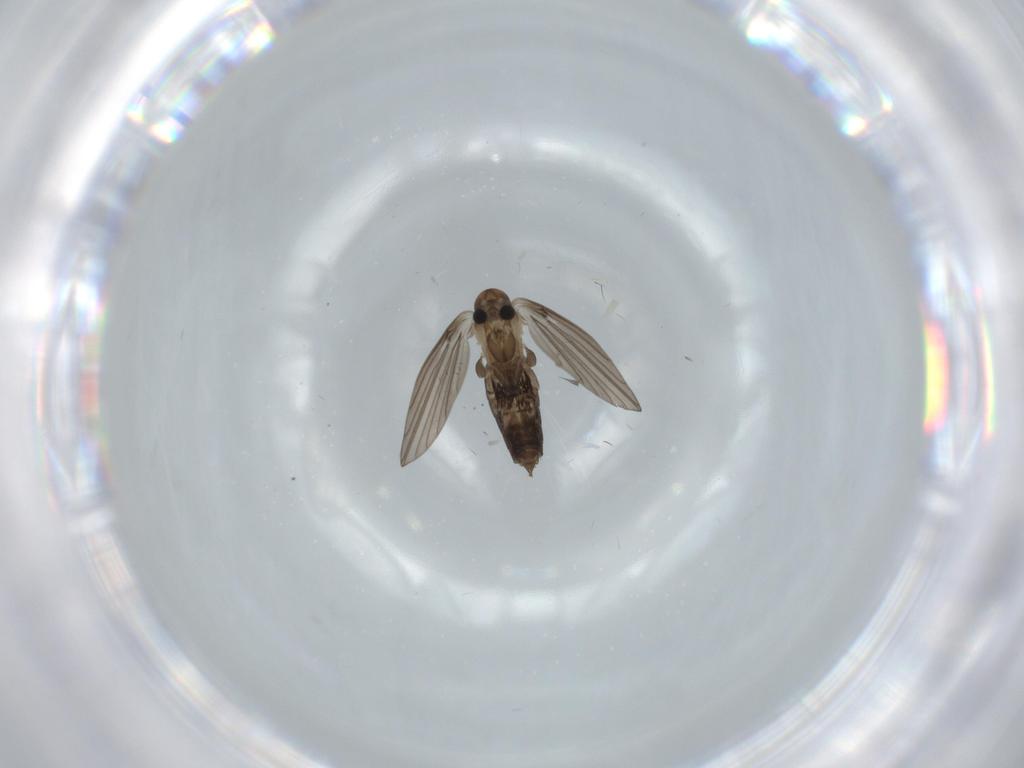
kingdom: Animalia
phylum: Arthropoda
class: Insecta
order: Diptera
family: Psychodidae
